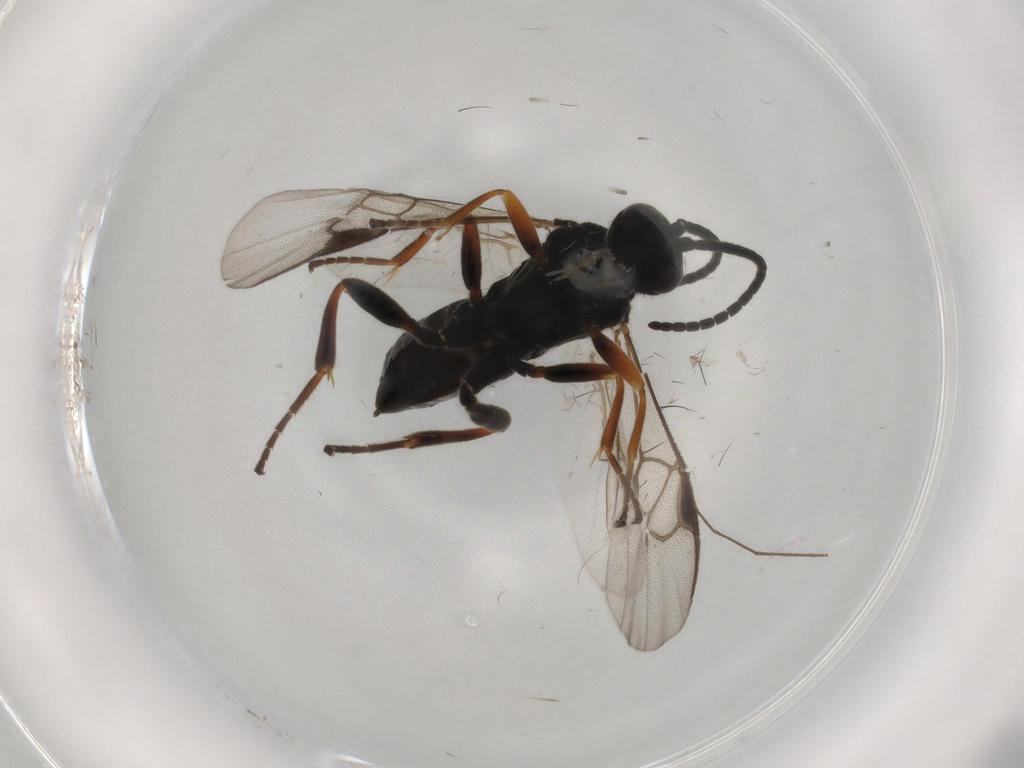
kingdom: Animalia
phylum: Arthropoda
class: Insecta
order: Hymenoptera
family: Braconidae
